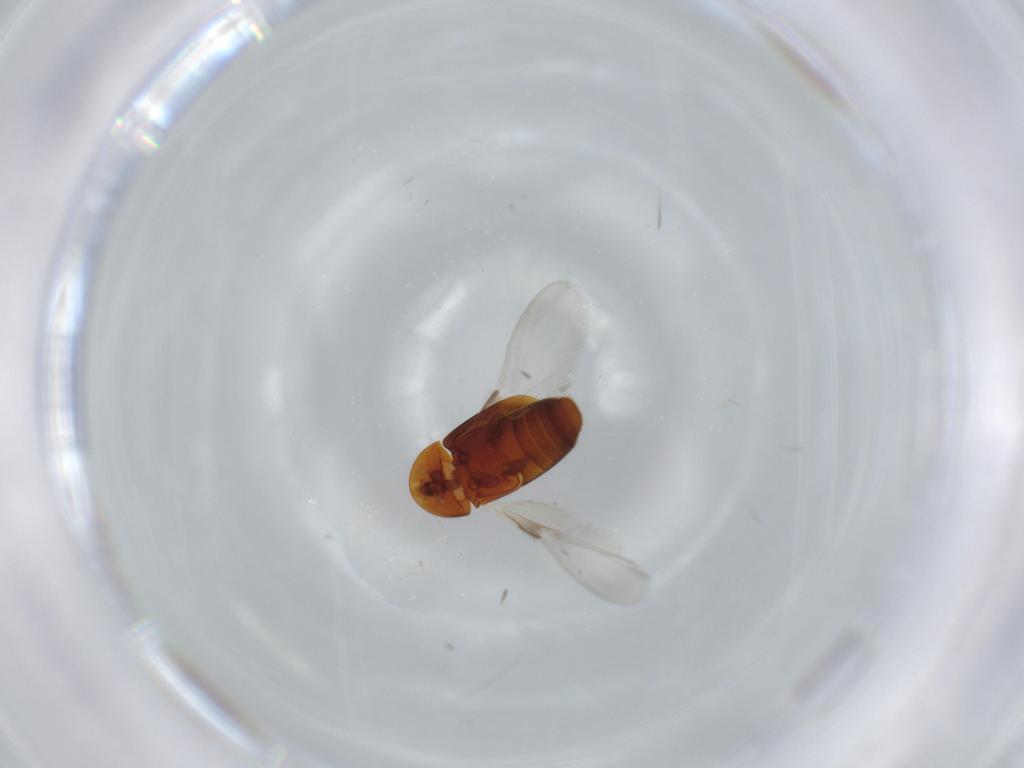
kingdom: Animalia
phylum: Arthropoda
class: Insecta
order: Coleoptera
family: Corylophidae
